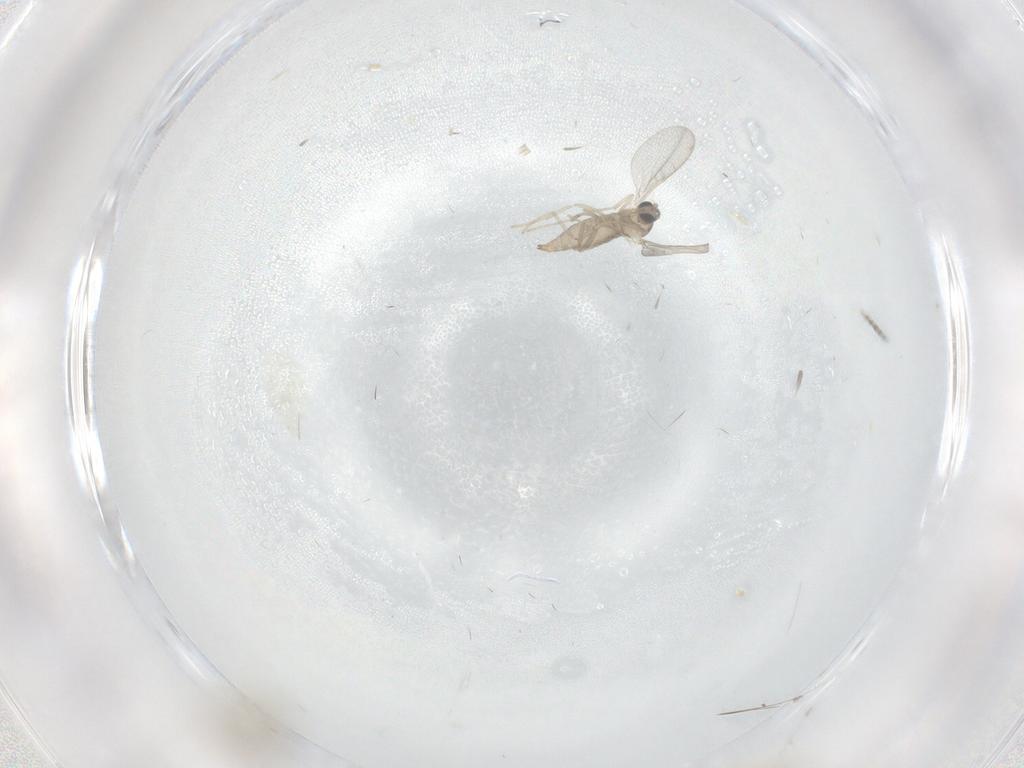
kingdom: Animalia
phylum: Arthropoda
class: Insecta
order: Diptera
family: Cecidomyiidae
